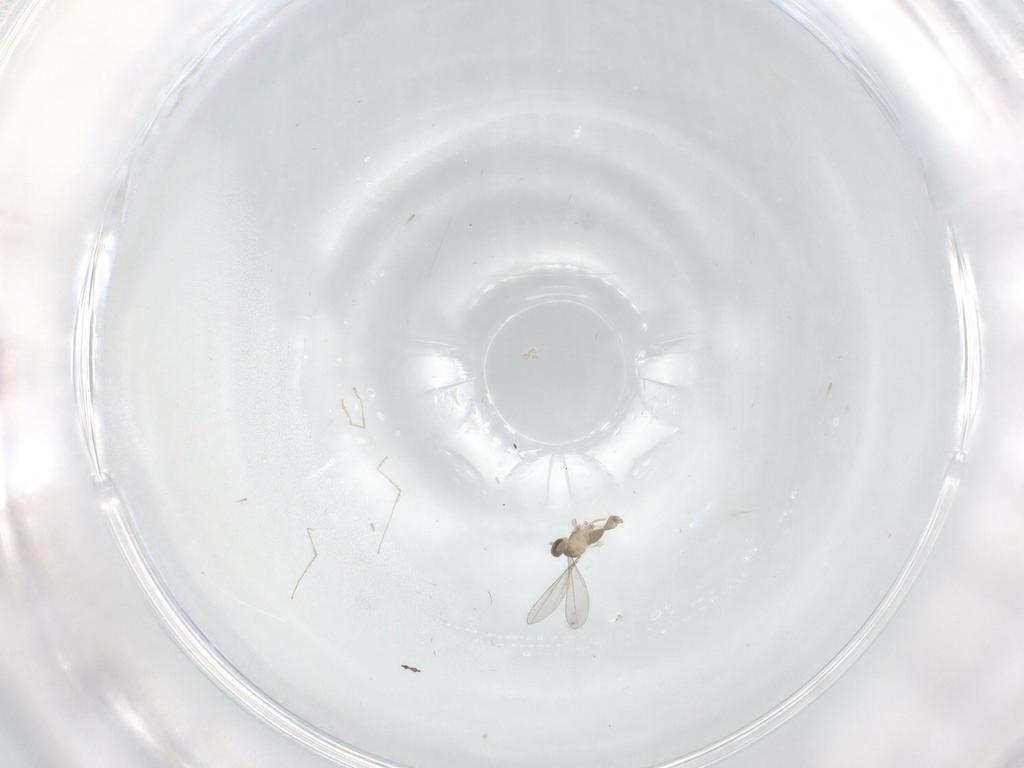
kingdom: Animalia
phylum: Arthropoda
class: Insecta
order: Diptera
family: Cecidomyiidae
